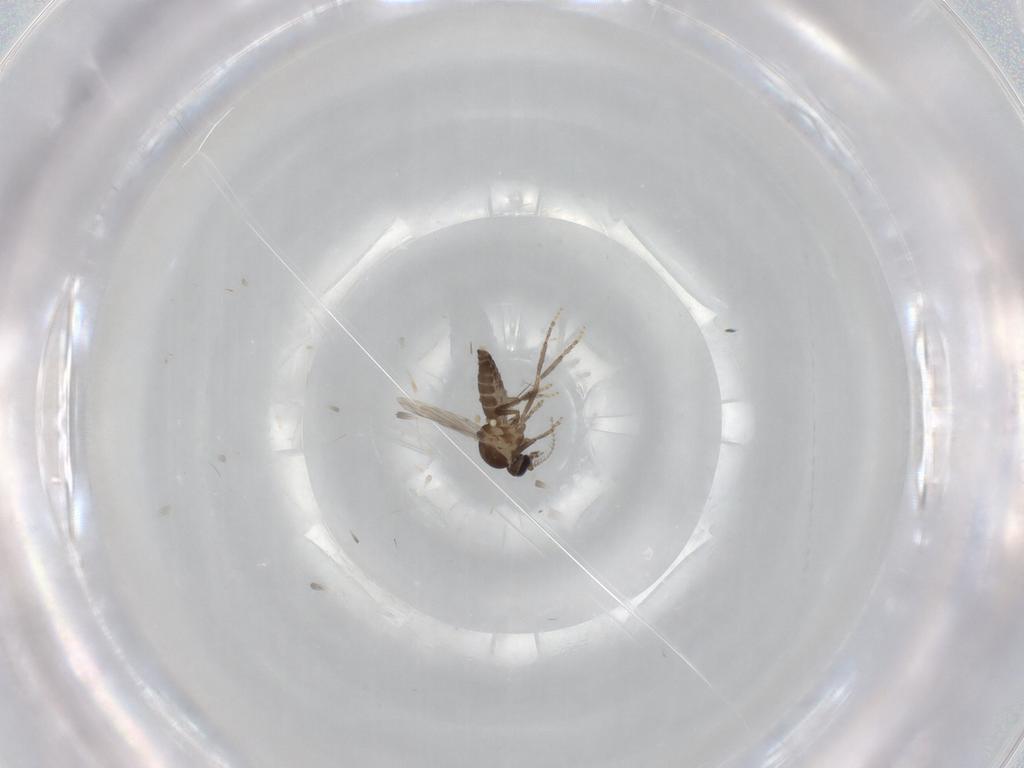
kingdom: Animalia
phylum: Arthropoda
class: Insecta
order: Diptera
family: Ceratopogonidae
